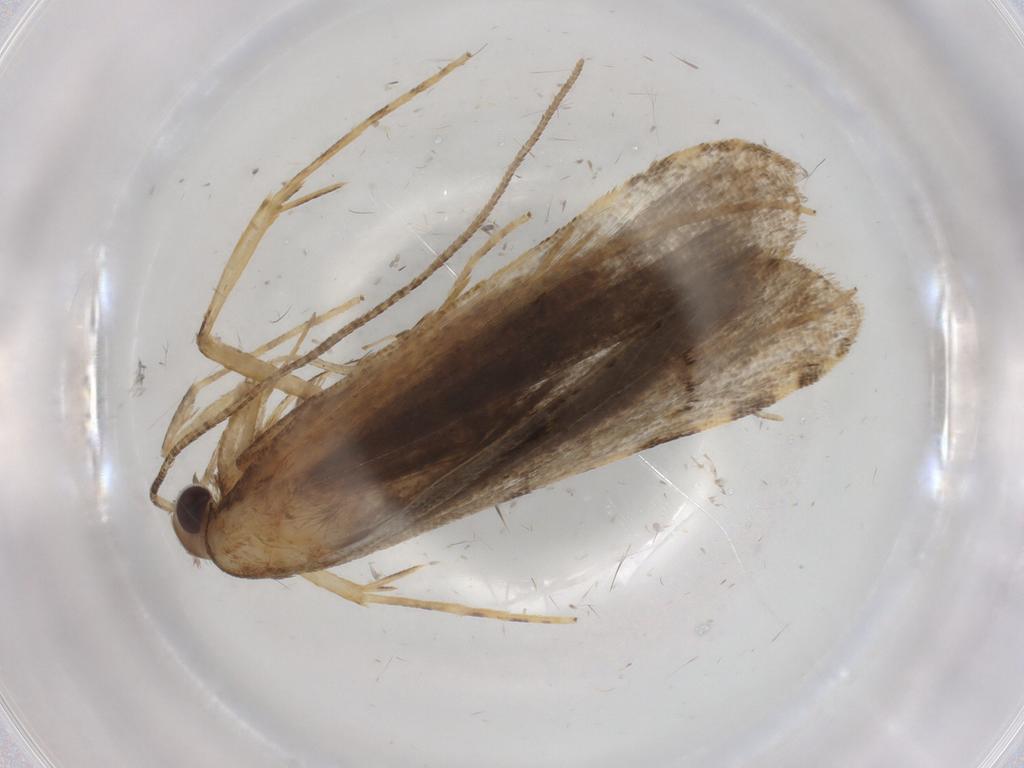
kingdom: Animalia
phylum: Arthropoda
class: Insecta
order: Lepidoptera
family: Autostichidae
